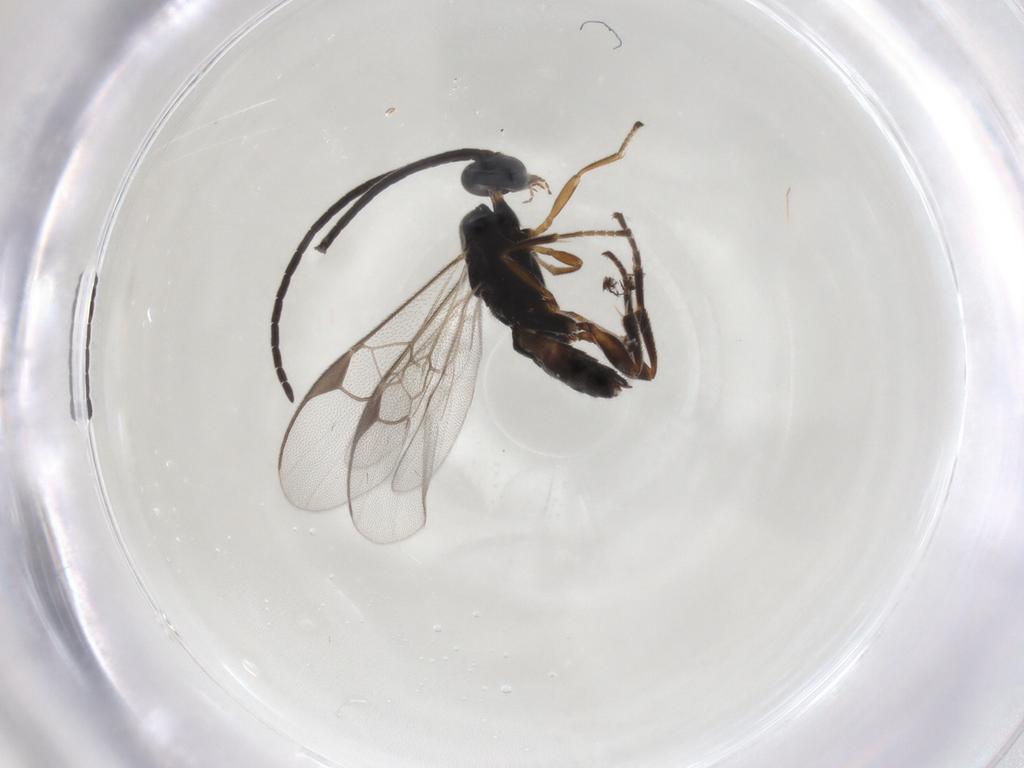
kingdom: Animalia
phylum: Arthropoda
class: Insecta
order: Hymenoptera
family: Braconidae
